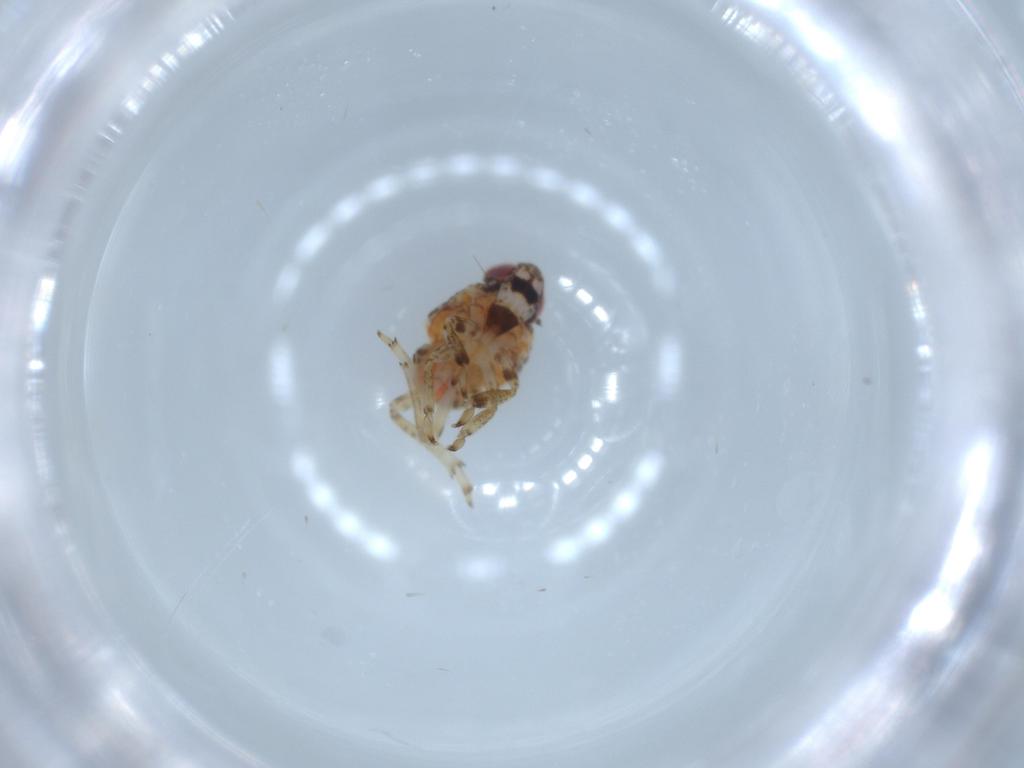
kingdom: Animalia
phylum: Arthropoda
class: Insecta
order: Hemiptera
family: Issidae
